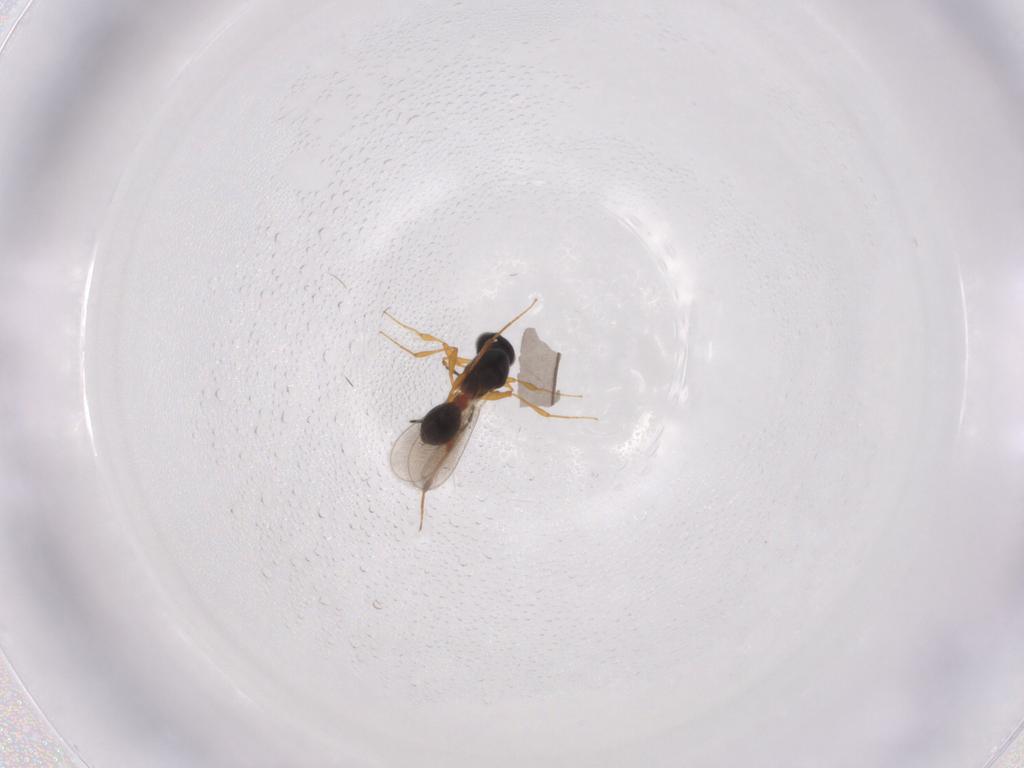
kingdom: Animalia
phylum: Arthropoda
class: Insecta
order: Hymenoptera
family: Platygastridae
